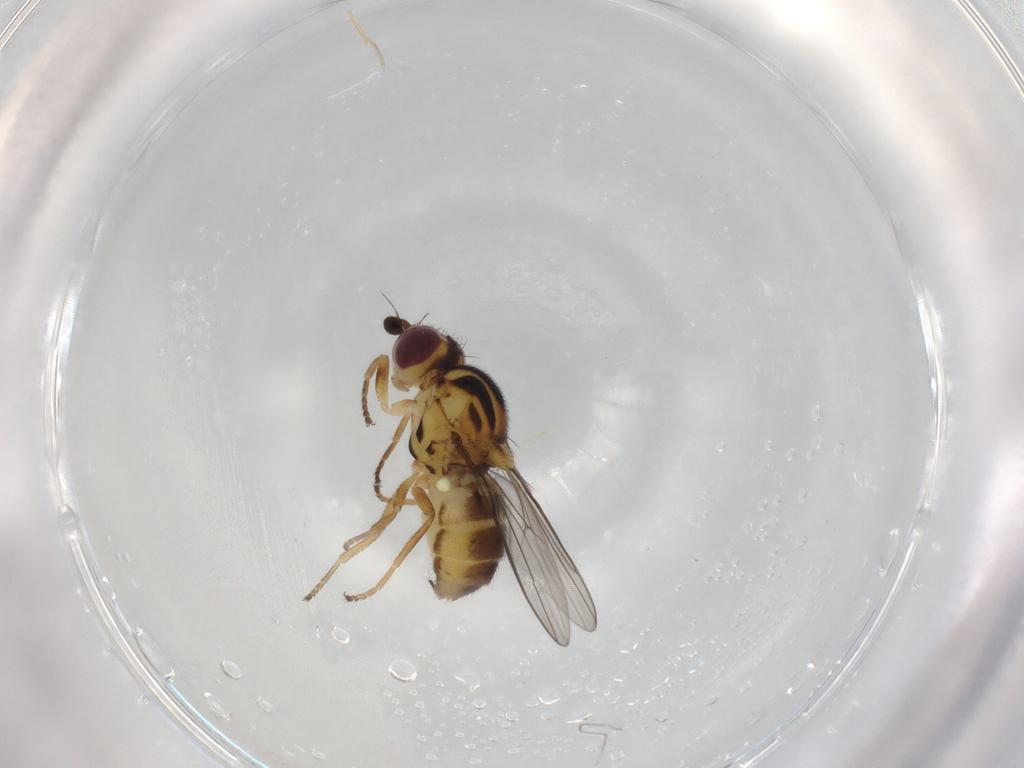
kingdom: Animalia
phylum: Arthropoda
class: Insecta
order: Diptera
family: Chloropidae
